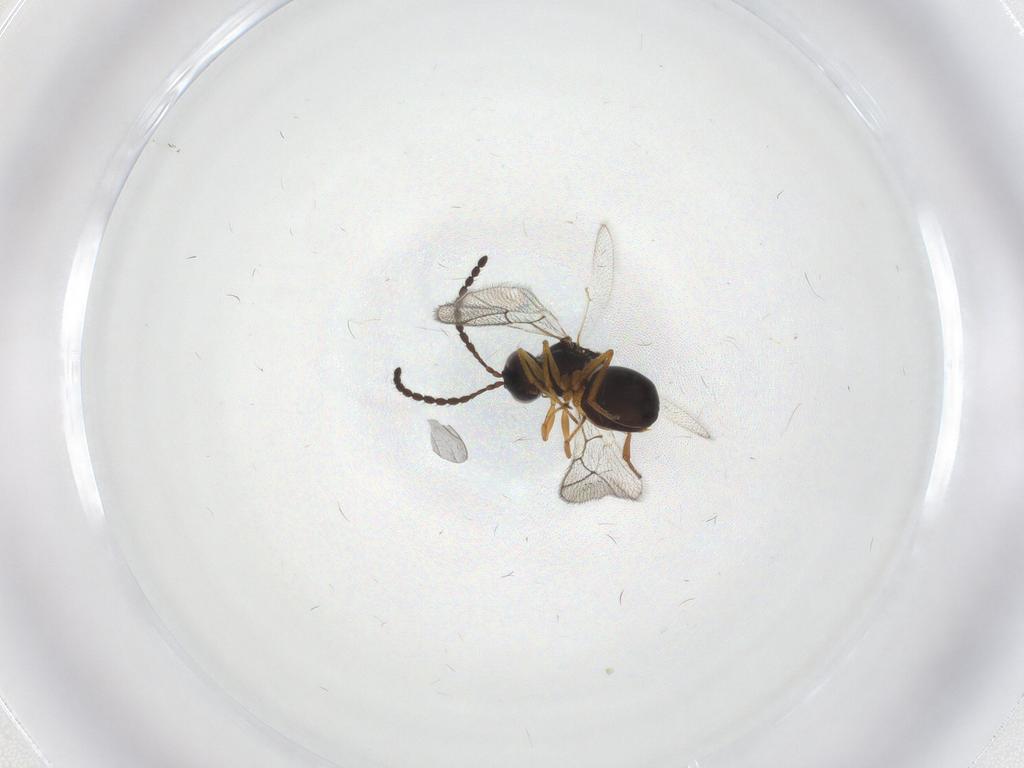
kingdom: Animalia
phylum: Arthropoda
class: Insecta
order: Hymenoptera
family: Figitidae
